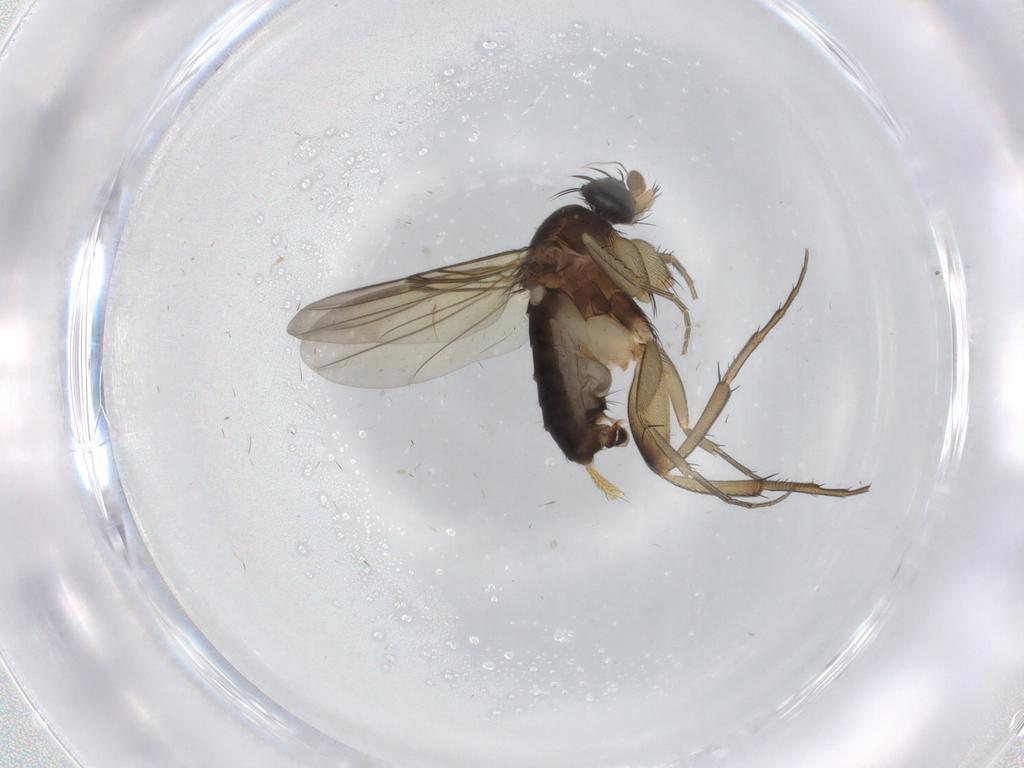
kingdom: Animalia
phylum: Arthropoda
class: Insecta
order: Diptera
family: Phoridae
